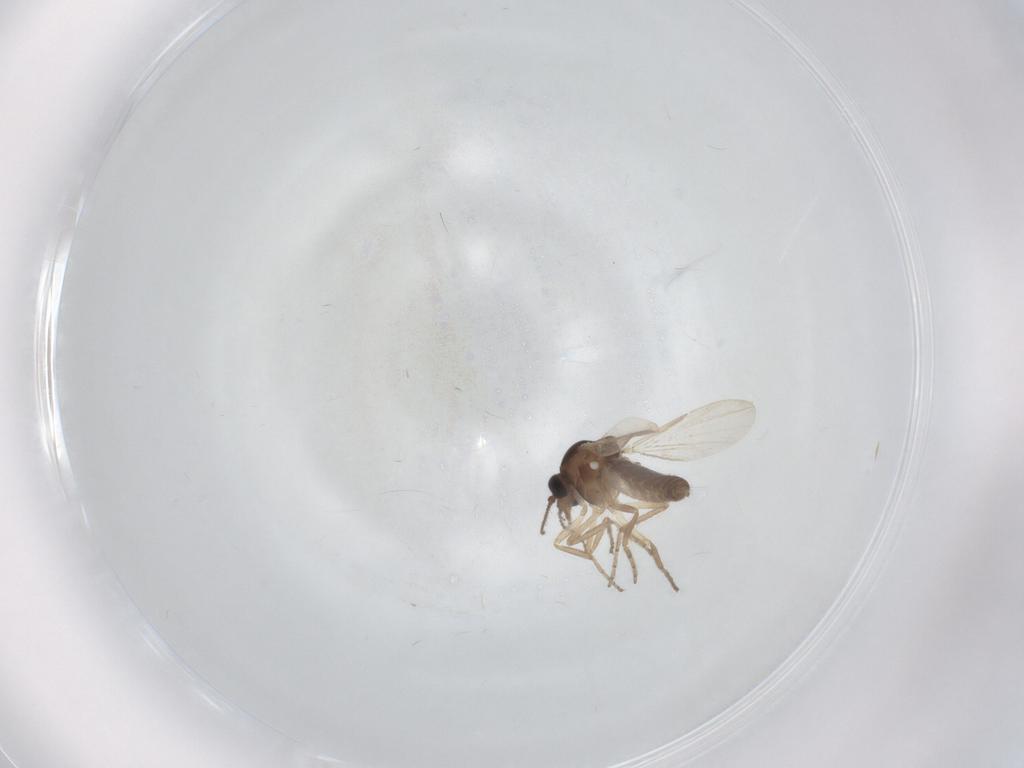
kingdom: Animalia
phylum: Arthropoda
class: Insecta
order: Diptera
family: Ceratopogonidae
